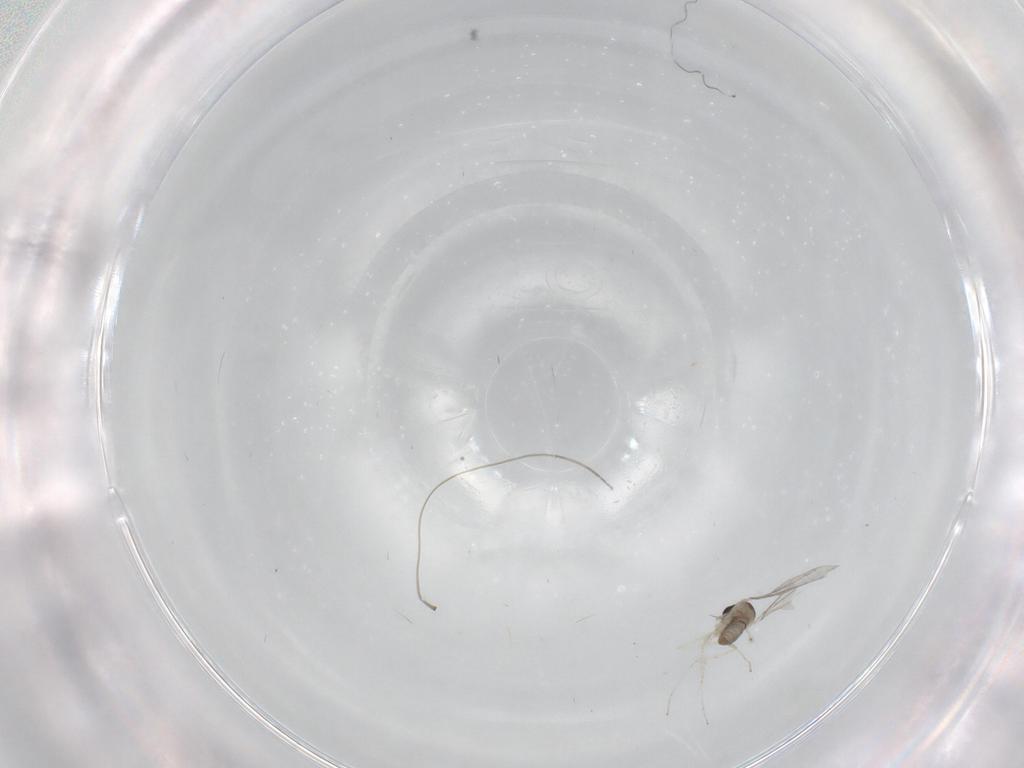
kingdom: Animalia
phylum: Arthropoda
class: Insecta
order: Diptera
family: Cecidomyiidae
